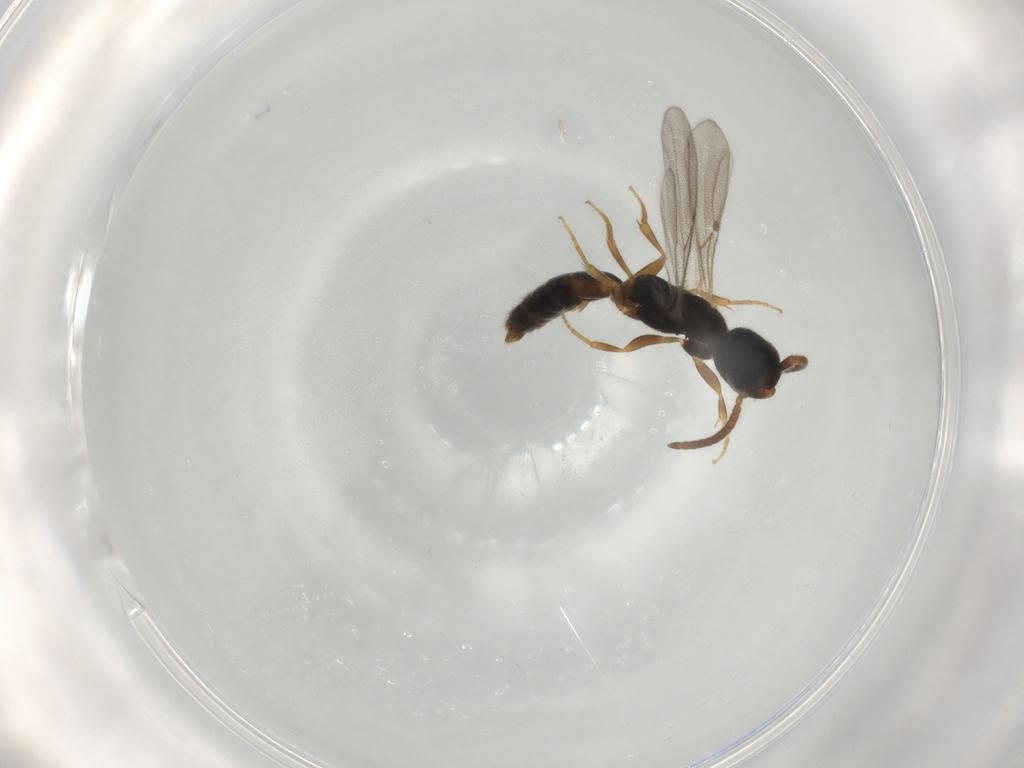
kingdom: Animalia
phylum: Arthropoda
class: Insecta
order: Hymenoptera
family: Bethylidae
